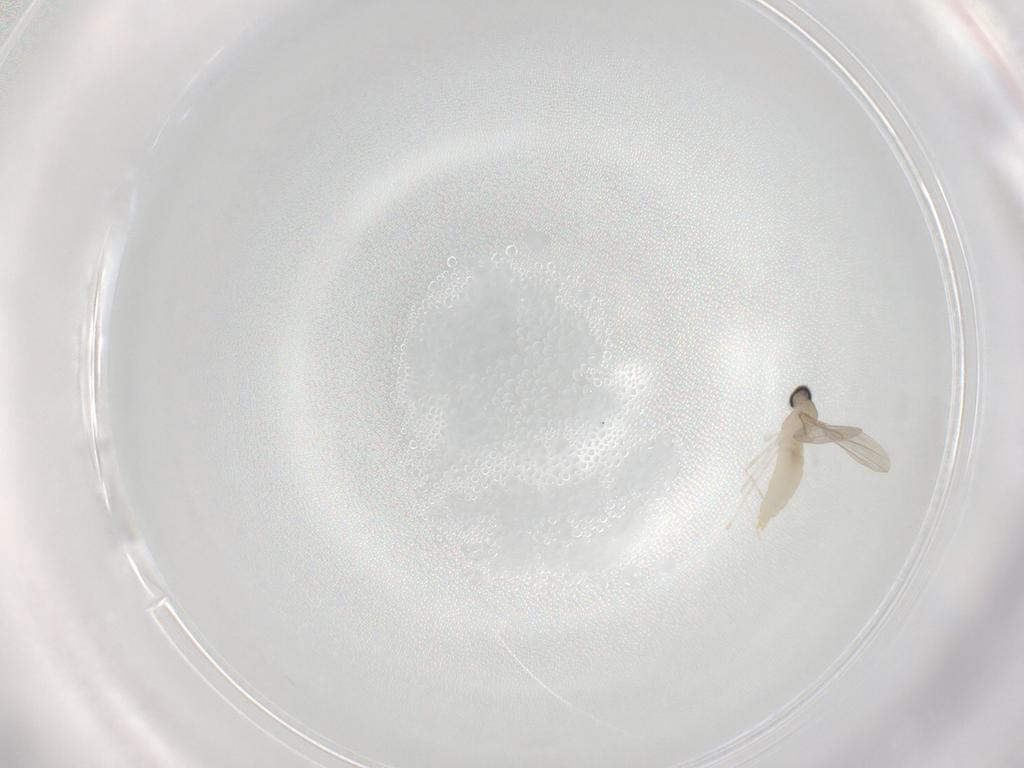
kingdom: Animalia
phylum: Arthropoda
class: Insecta
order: Diptera
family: Cecidomyiidae
